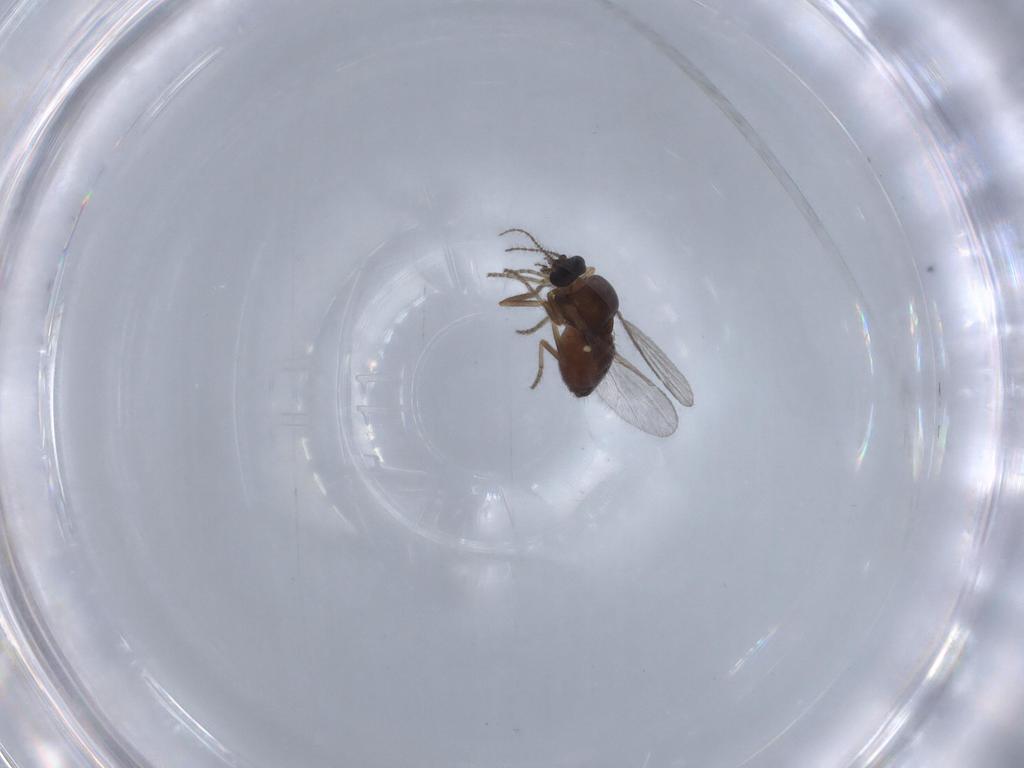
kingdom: Animalia
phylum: Arthropoda
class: Insecta
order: Diptera
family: Ceratopogonidae
